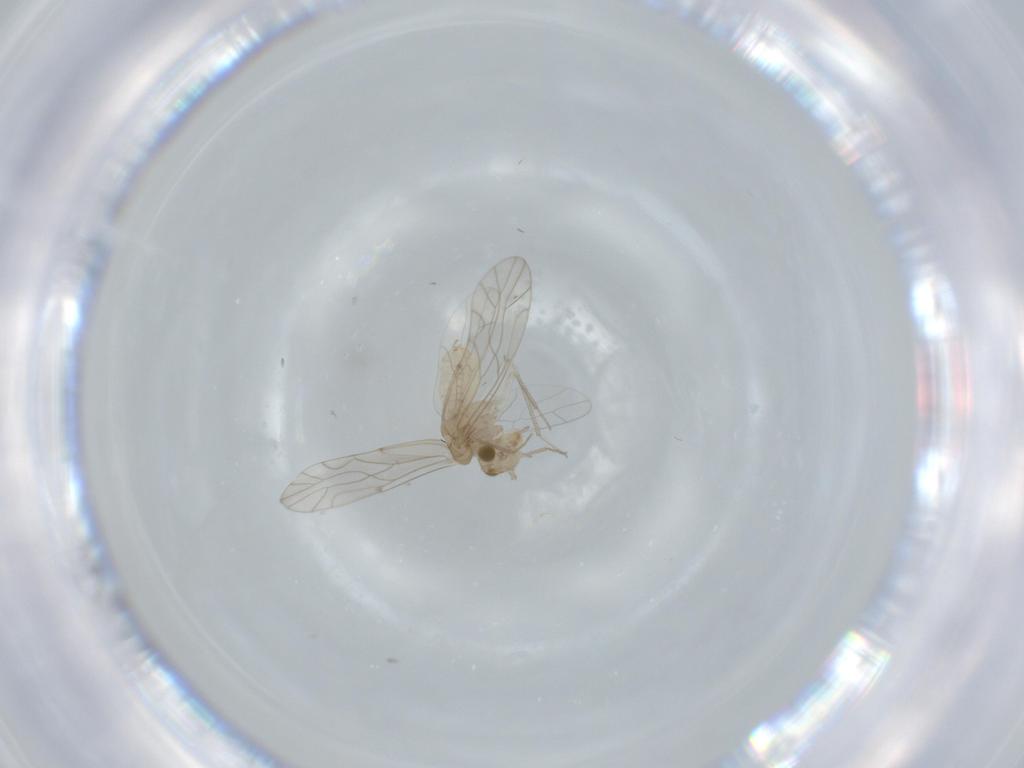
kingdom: Animalia
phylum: Arthropoda
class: Insecta
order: Psocodea
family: Lachesillidae
